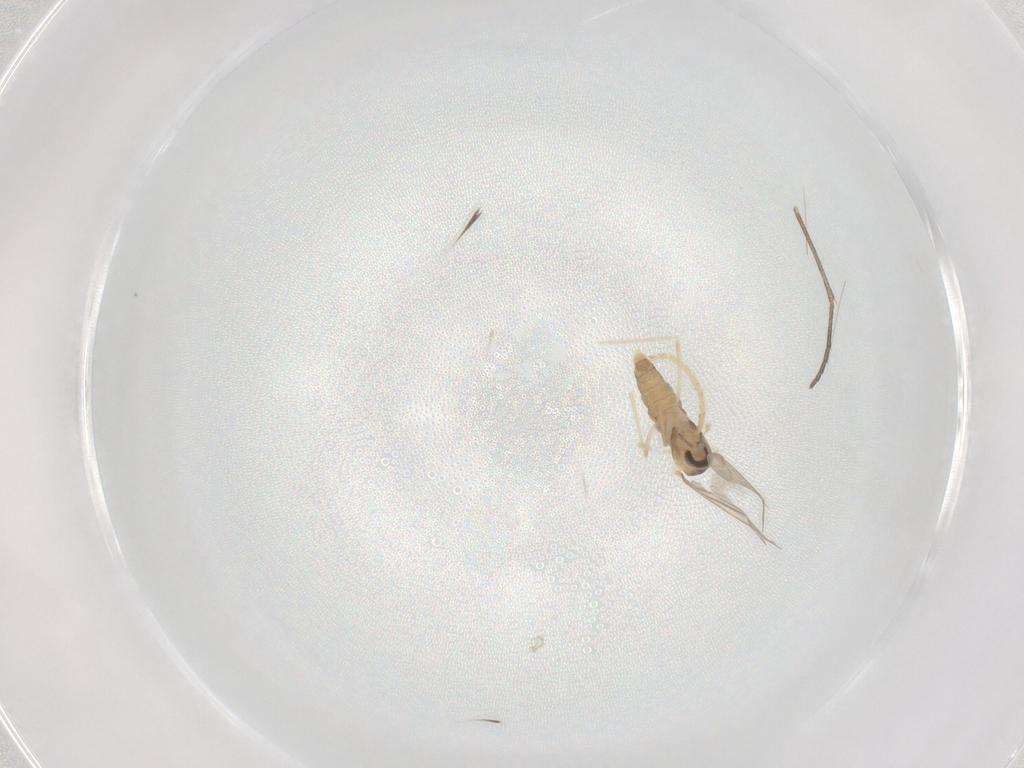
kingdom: Animalia
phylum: Arthropoda
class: Insecta
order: Diptera
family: Cecidomyiidae
